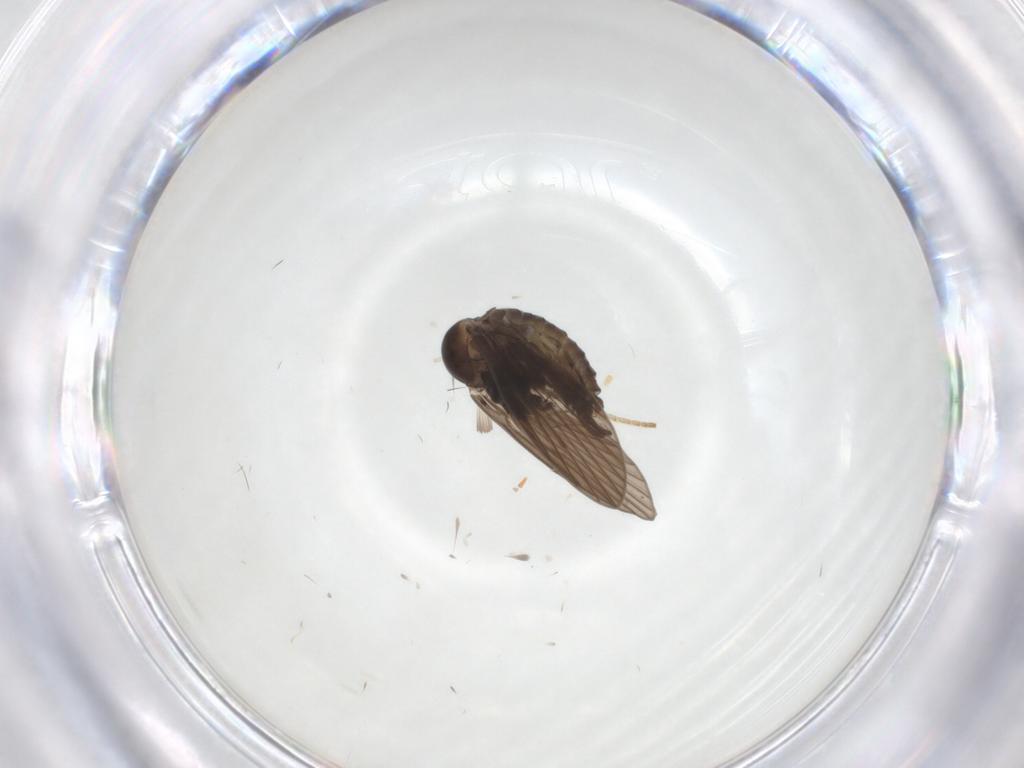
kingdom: Animalia
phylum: Arthropoda
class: Insecta
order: Diptera
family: Psychodidae
